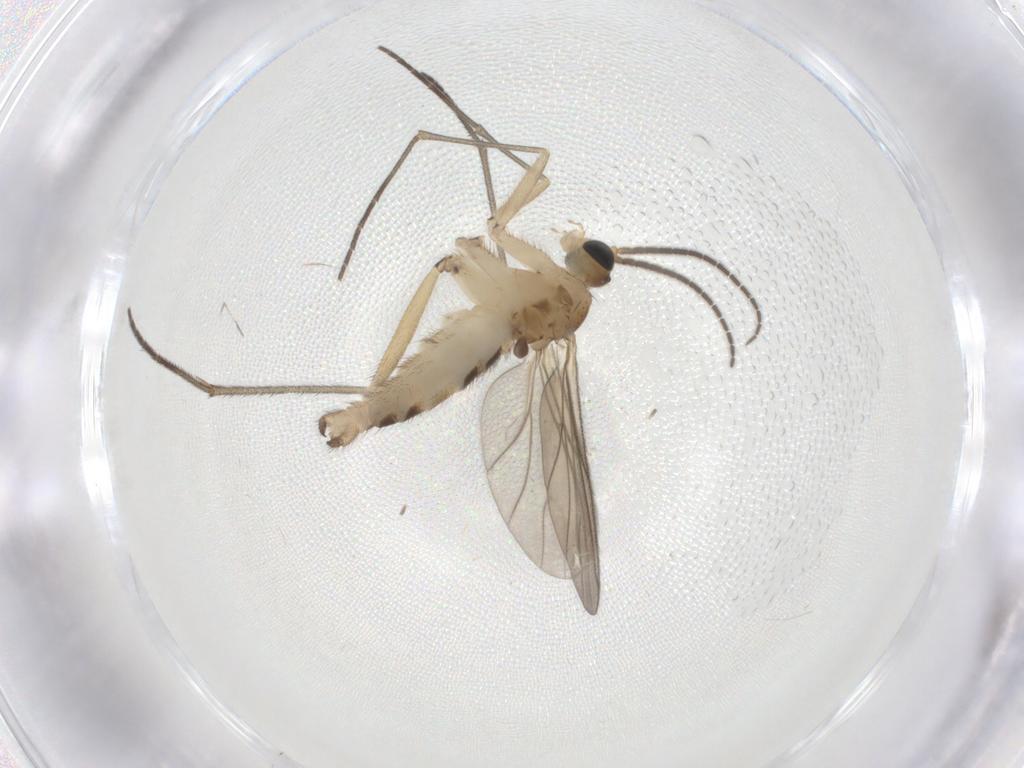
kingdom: Animalia
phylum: Arthropoda
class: Insecta
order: Diptera
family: Sciaridae
